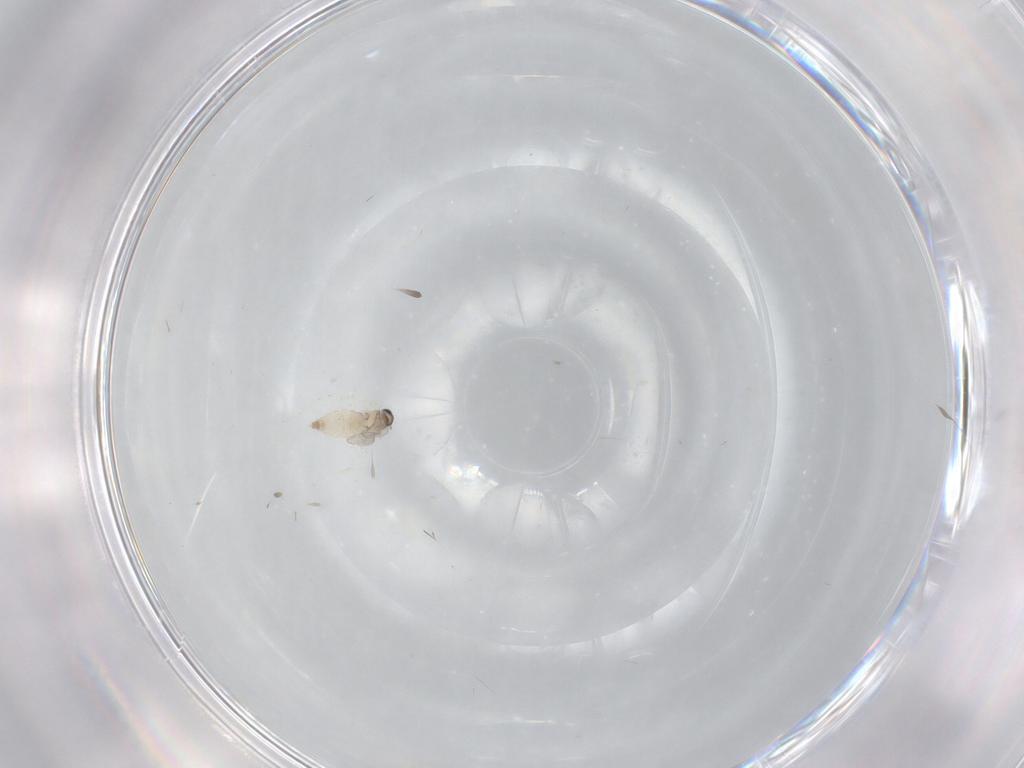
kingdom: Animalia
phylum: Arthropoda
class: Insecta
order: Diptera
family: Cecidomyiidae
